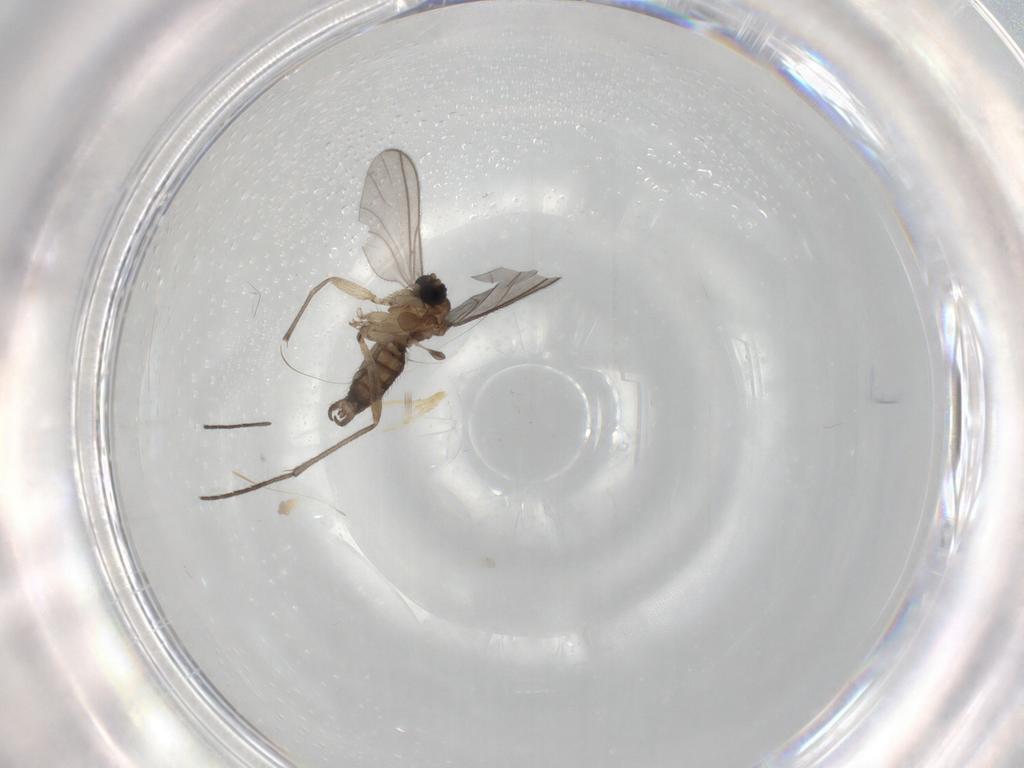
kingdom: Animalia
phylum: Arthropoda
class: Insecta
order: Diptera
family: Sciaridae
